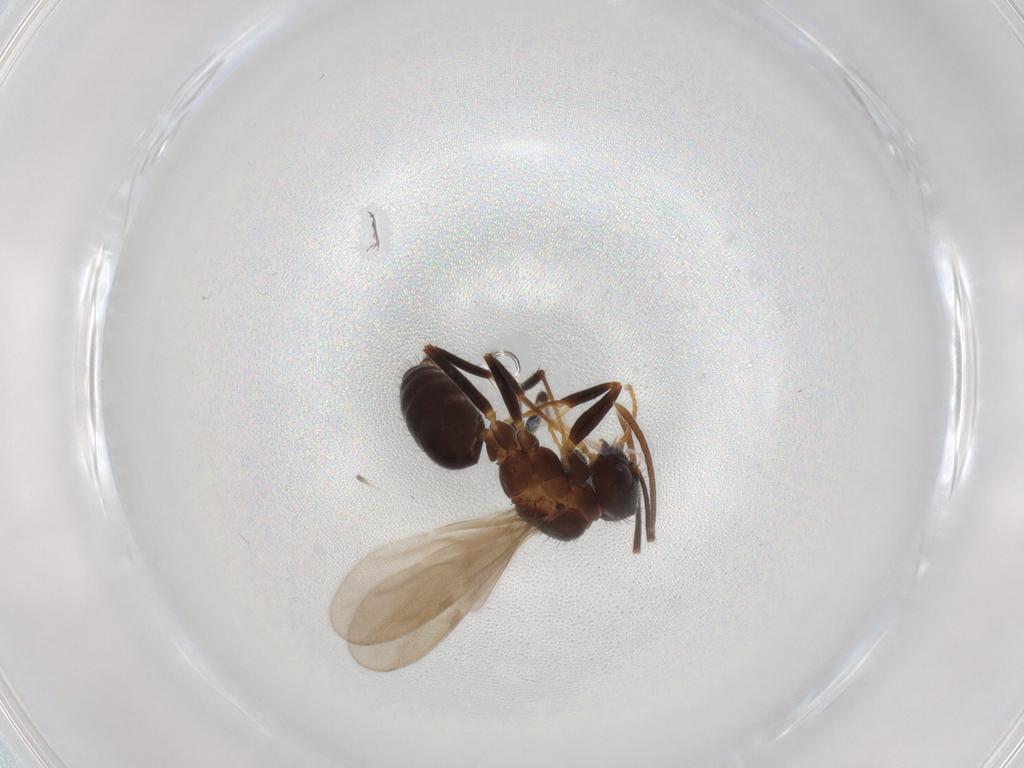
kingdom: Animalia
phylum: Arthropoda
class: Insecta
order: Hymenoptera
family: Formicidae
